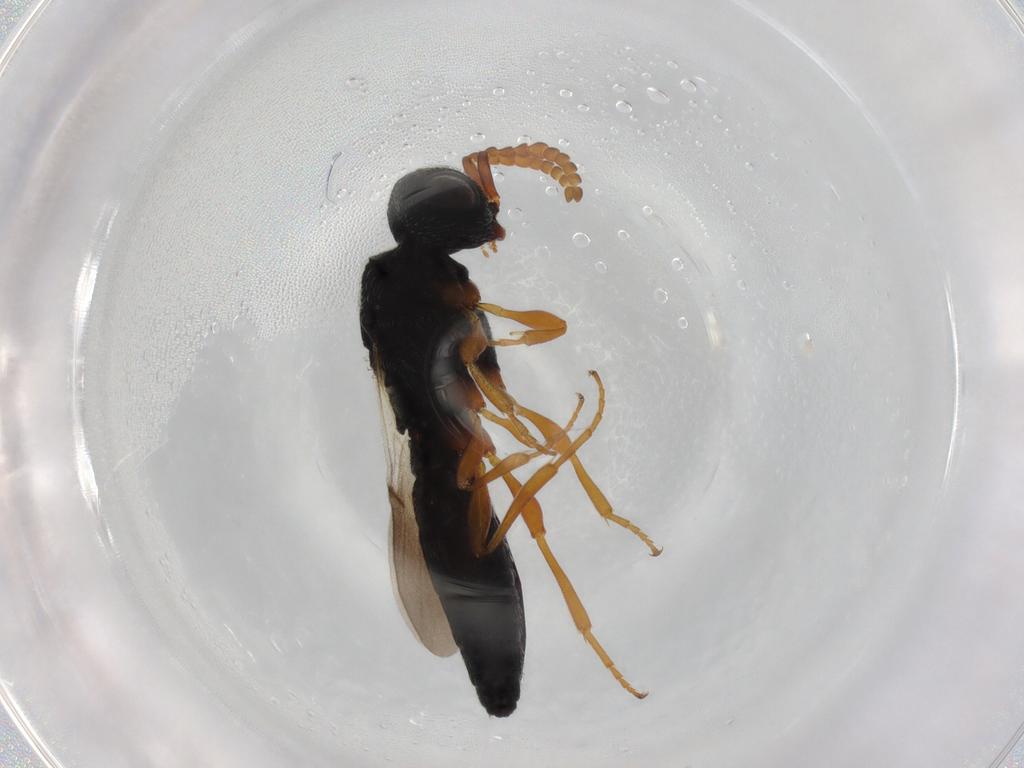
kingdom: Animalia
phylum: Arthropoda
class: Insecta
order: Hymenoptera
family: Scelionidae
